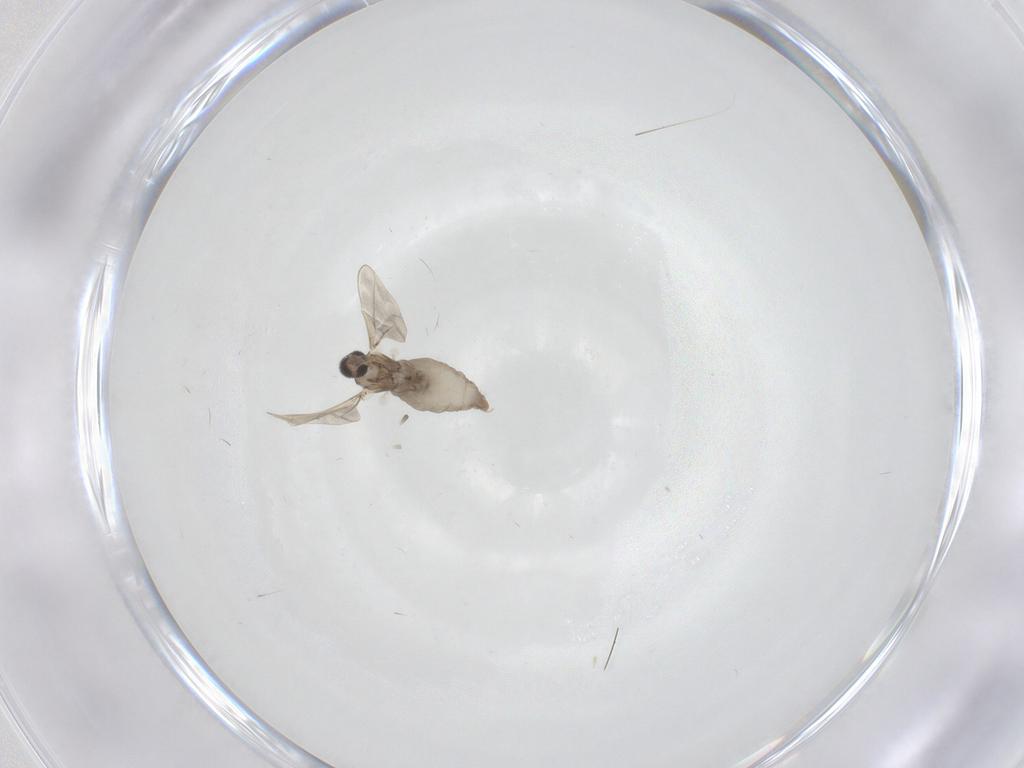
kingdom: Animalia
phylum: Arthropoda
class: Insecta
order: Diptera
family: Cecidomyiidae
